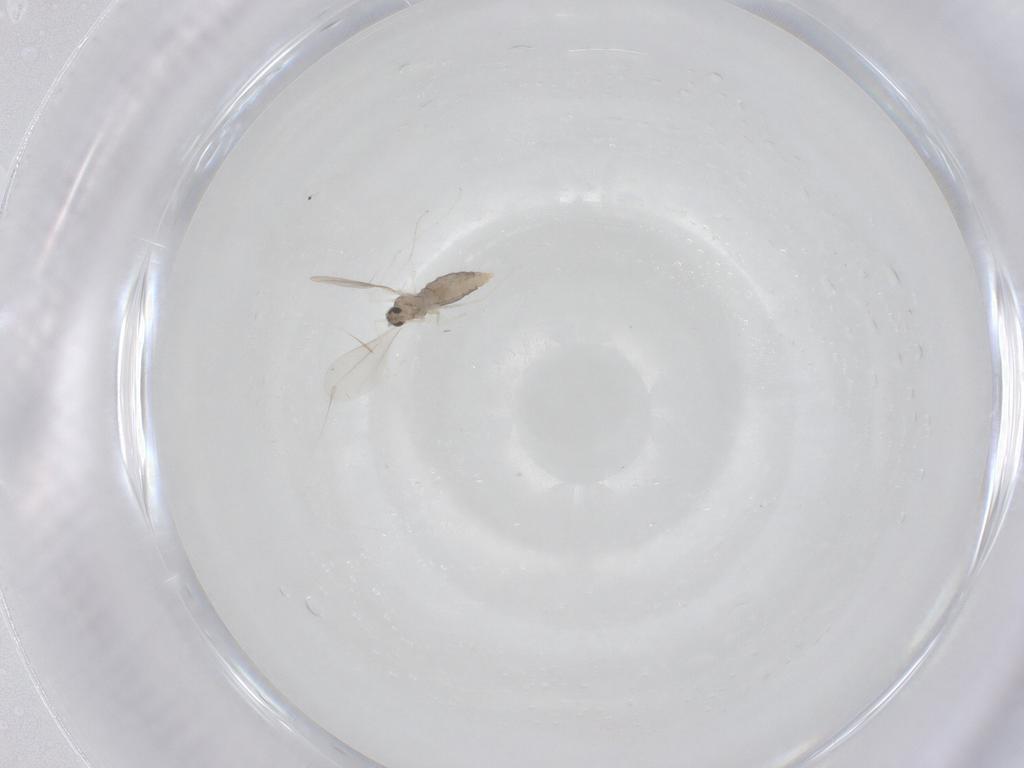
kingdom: Animalia
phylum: Arthropoda
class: Insecta
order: Diptera
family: Cecidomyiidae
